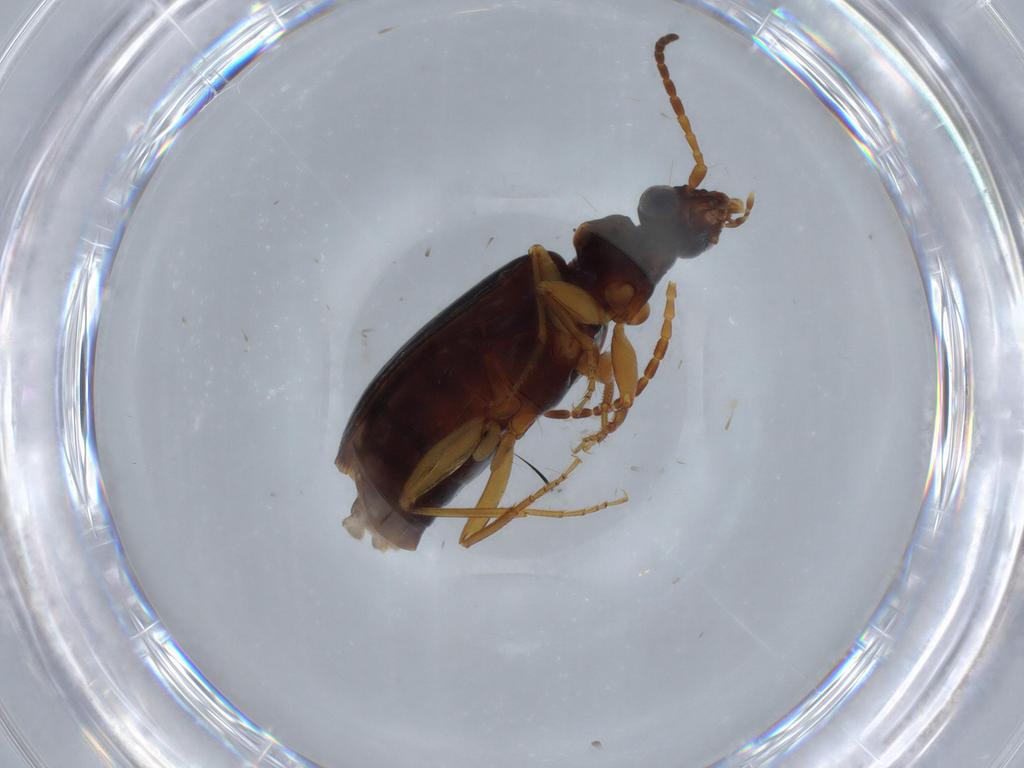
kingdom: Animalia
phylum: Arthropoda
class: Insecta
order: Coleoptera
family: Carabidae
